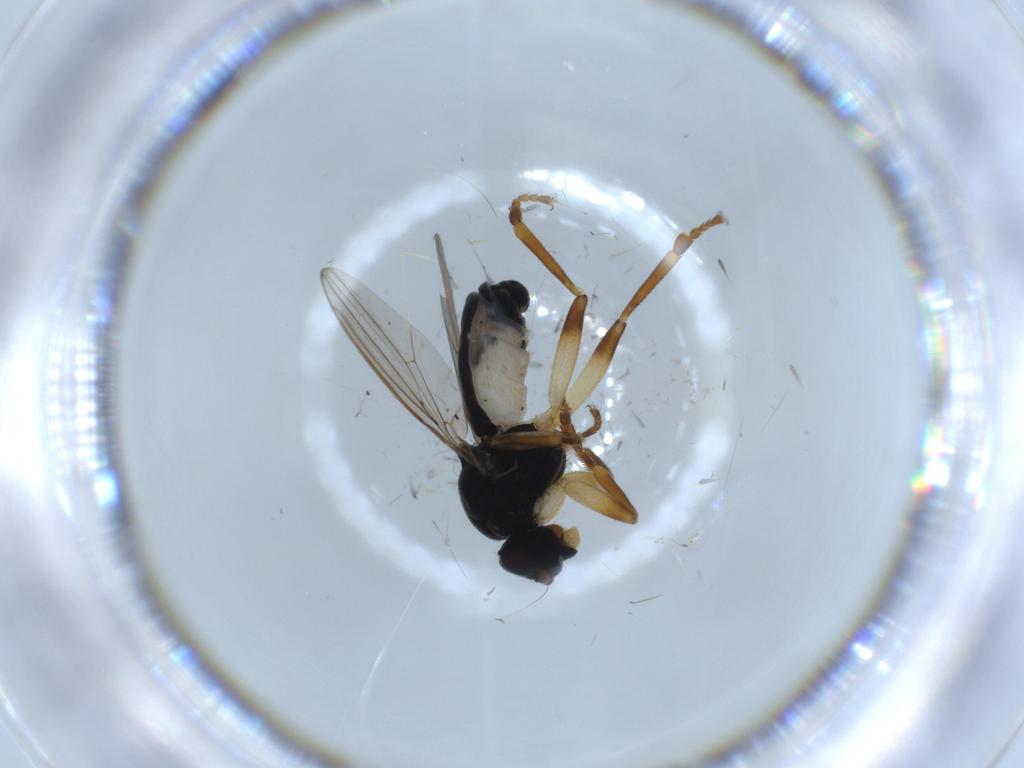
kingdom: Animalia
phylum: Arthropoda
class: Insecta
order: Diptera
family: Sphaeroceridae
